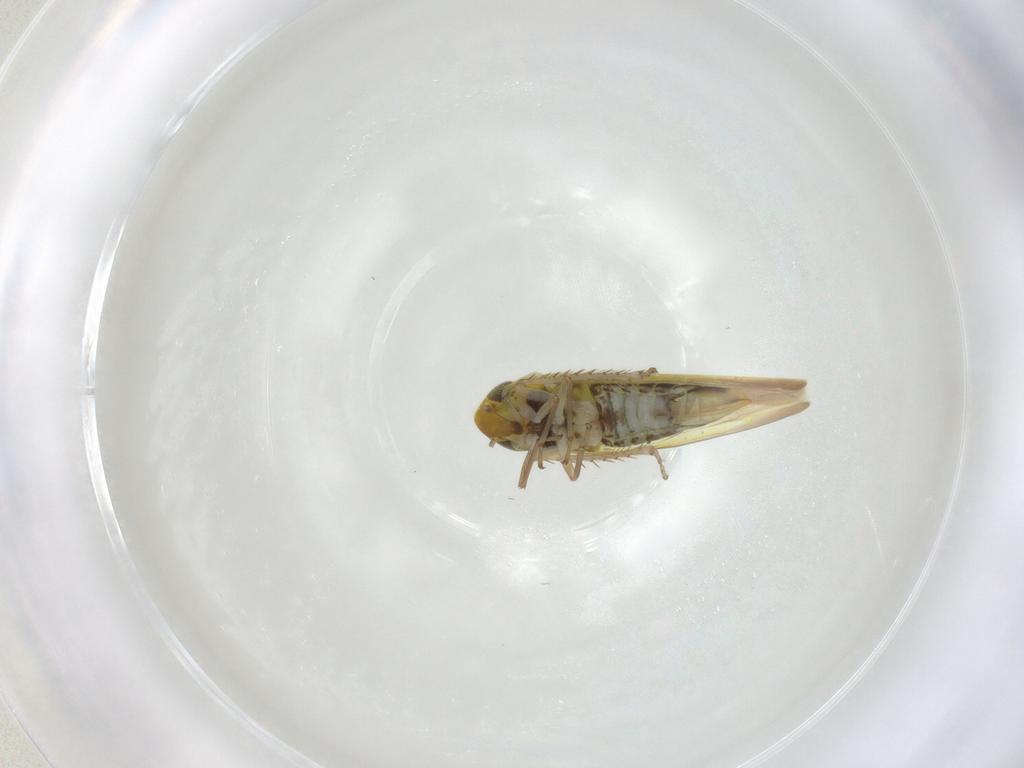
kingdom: Animalia
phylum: Arthropoda
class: Insecta
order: Hemiptera
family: Cicadellidae
